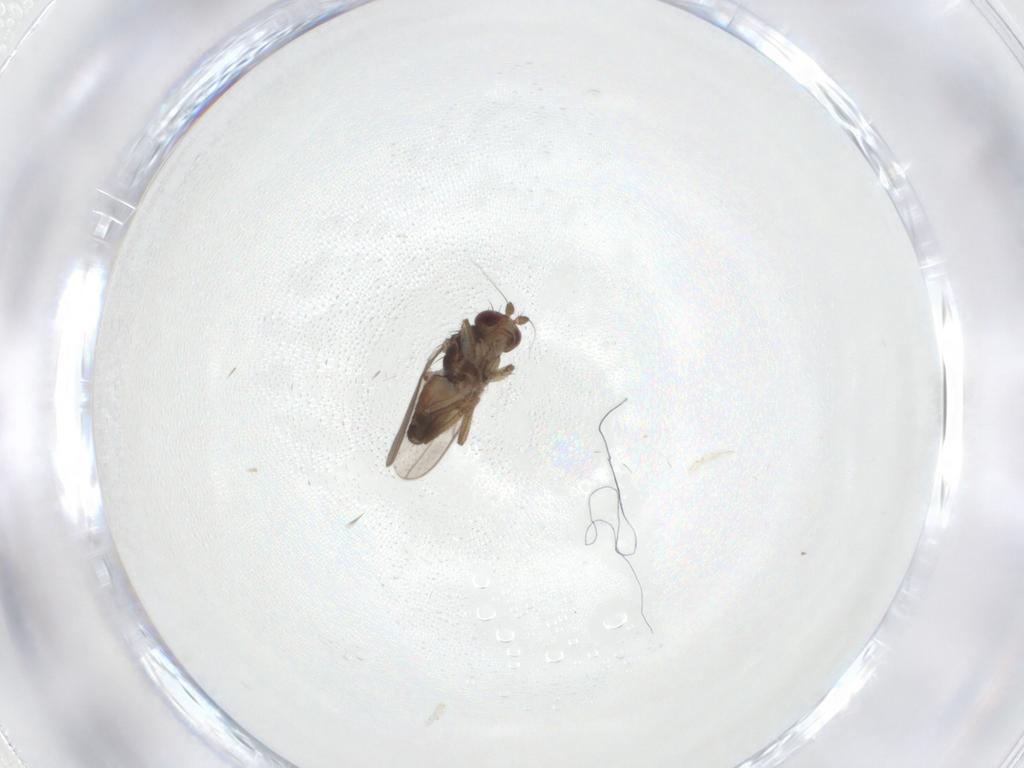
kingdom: Animalia
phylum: Arthropoda
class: Insecta
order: Diptera
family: Sphaeroceridae
